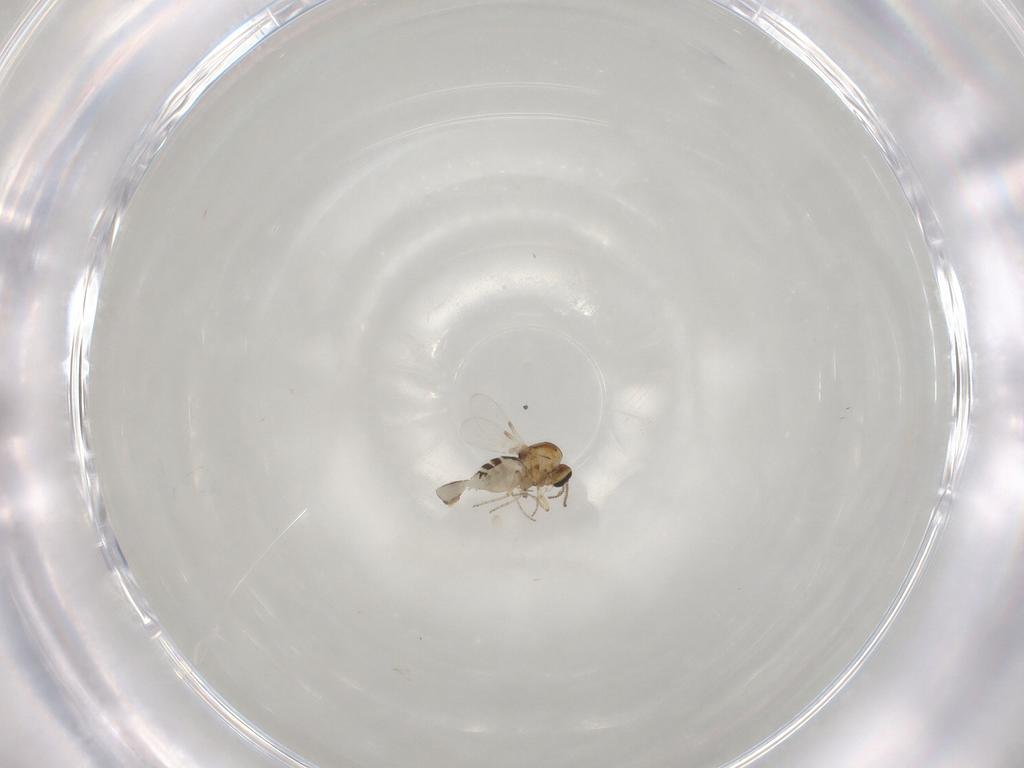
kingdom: Animalia
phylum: Arthropoda
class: Insecta
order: Diptera
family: Ceratopogonidae
